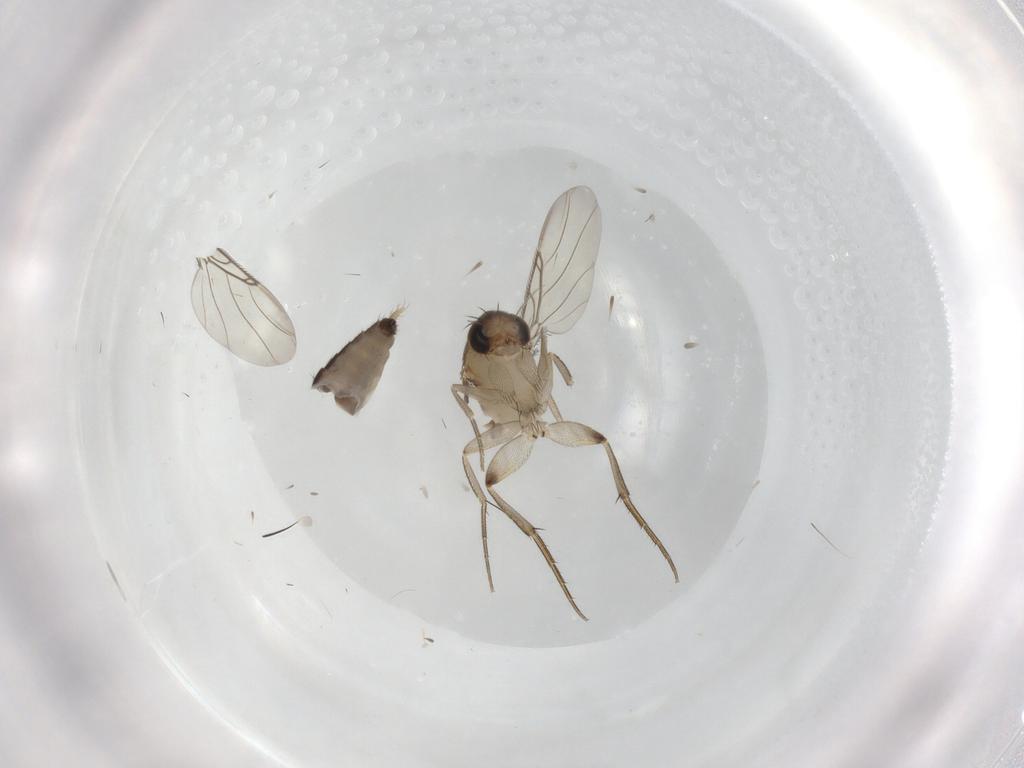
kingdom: Animalia
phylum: Arthropoda
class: Insecta
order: Diptera
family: Phoridae
